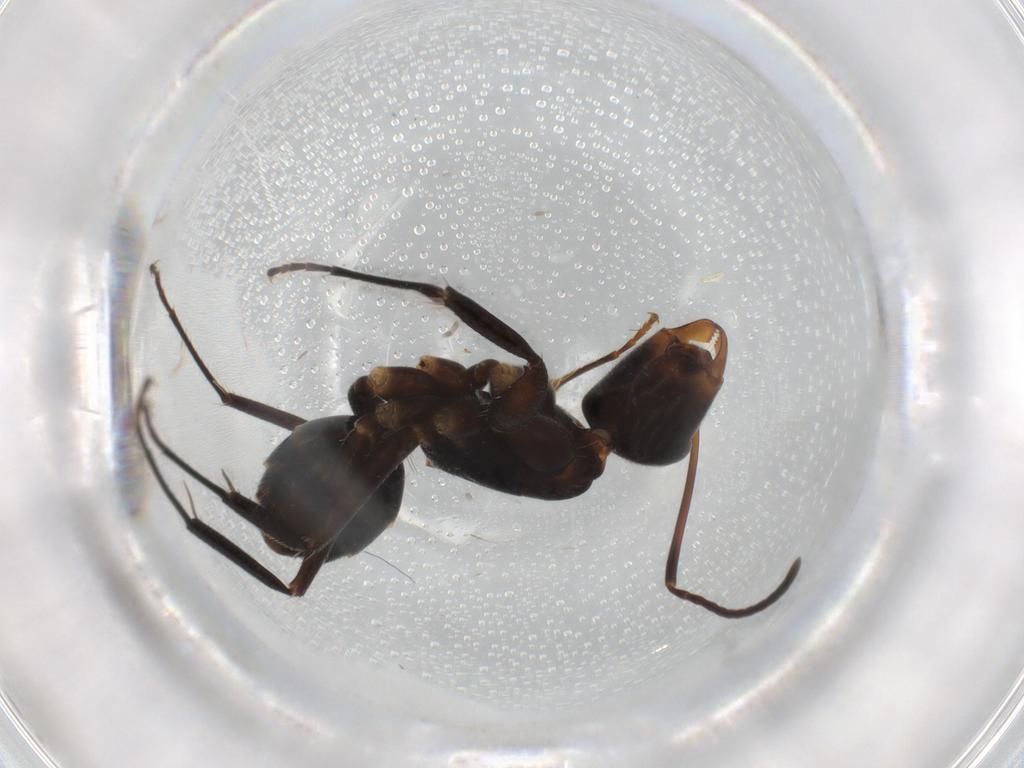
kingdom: Animalia
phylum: Arthropoda
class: Insecta
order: Hymenoptera
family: Formicidae
